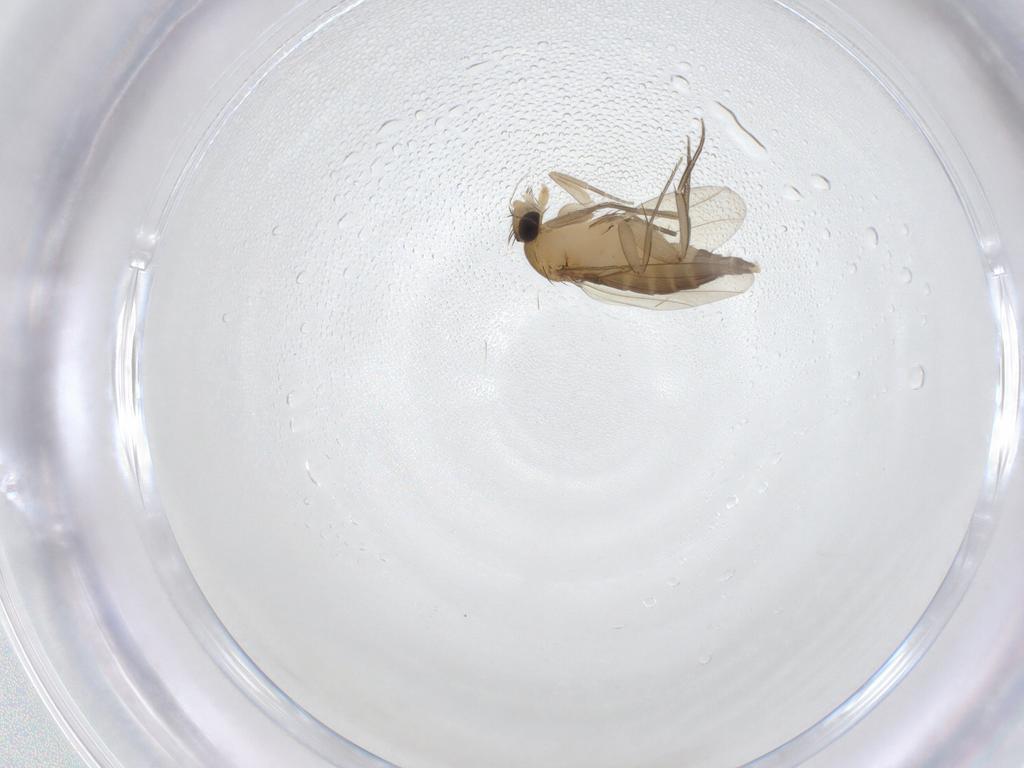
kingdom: Animalia
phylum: Arthropoda
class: Insecta
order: Diptera
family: Phoridae
